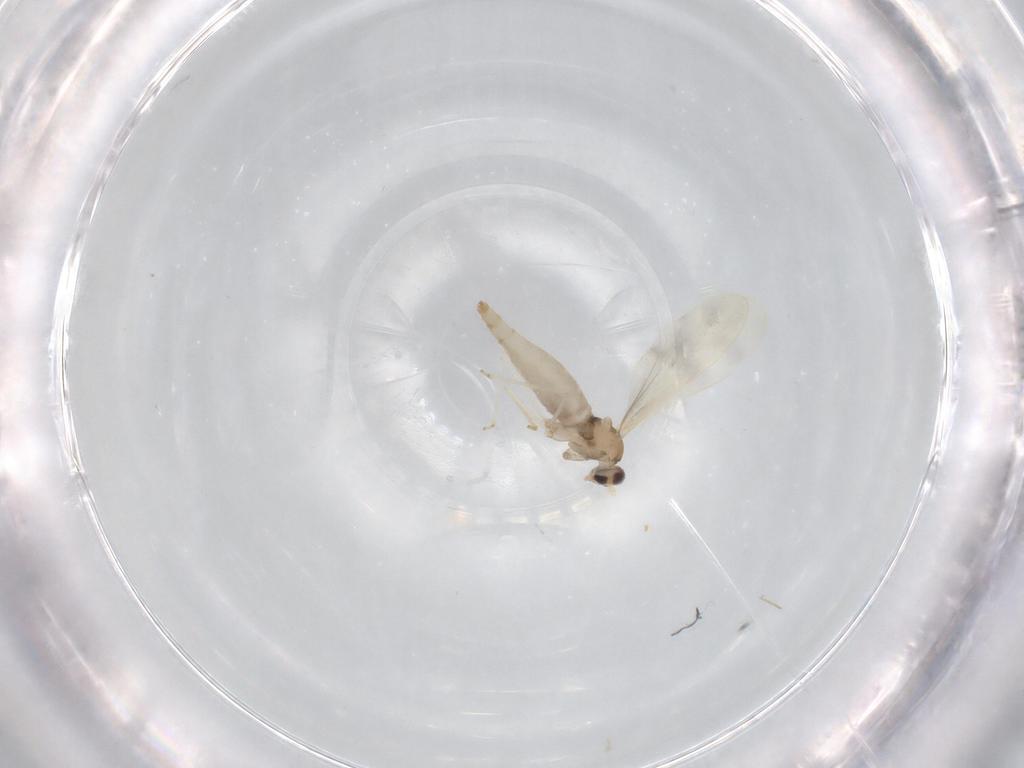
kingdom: Animalia
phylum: Arthropoda
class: Insecta
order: Diptera
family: Cecidomyiidae
